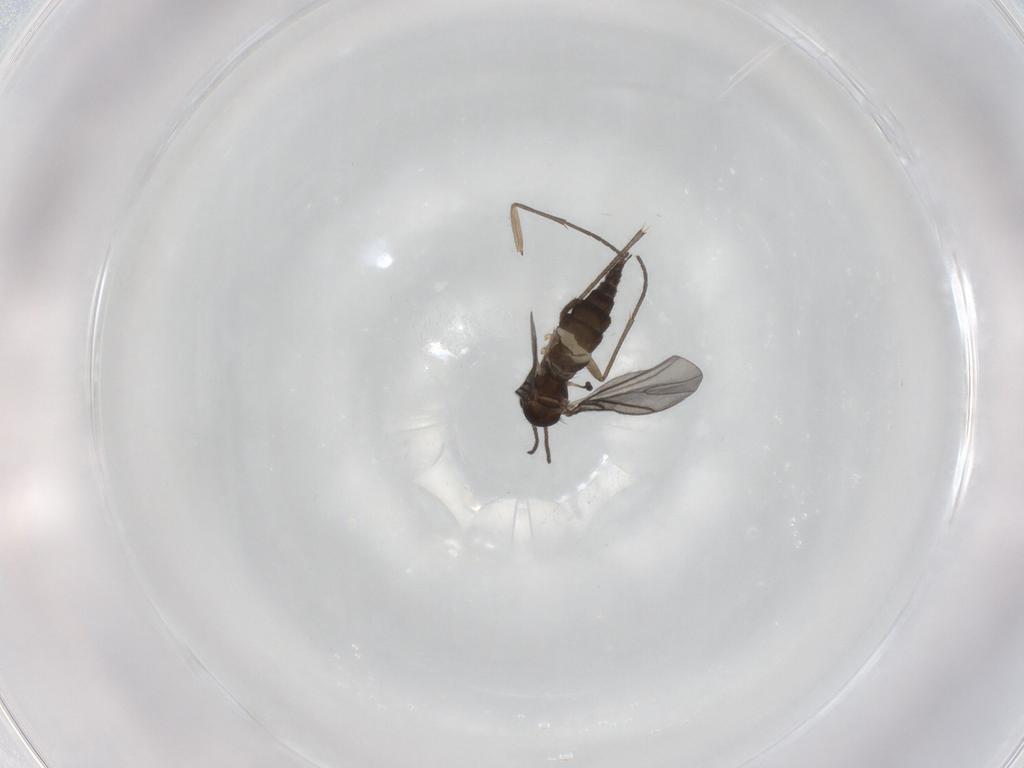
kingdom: Animalia
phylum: Arthropoda
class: Insecta
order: Diptera
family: Sciaridae
